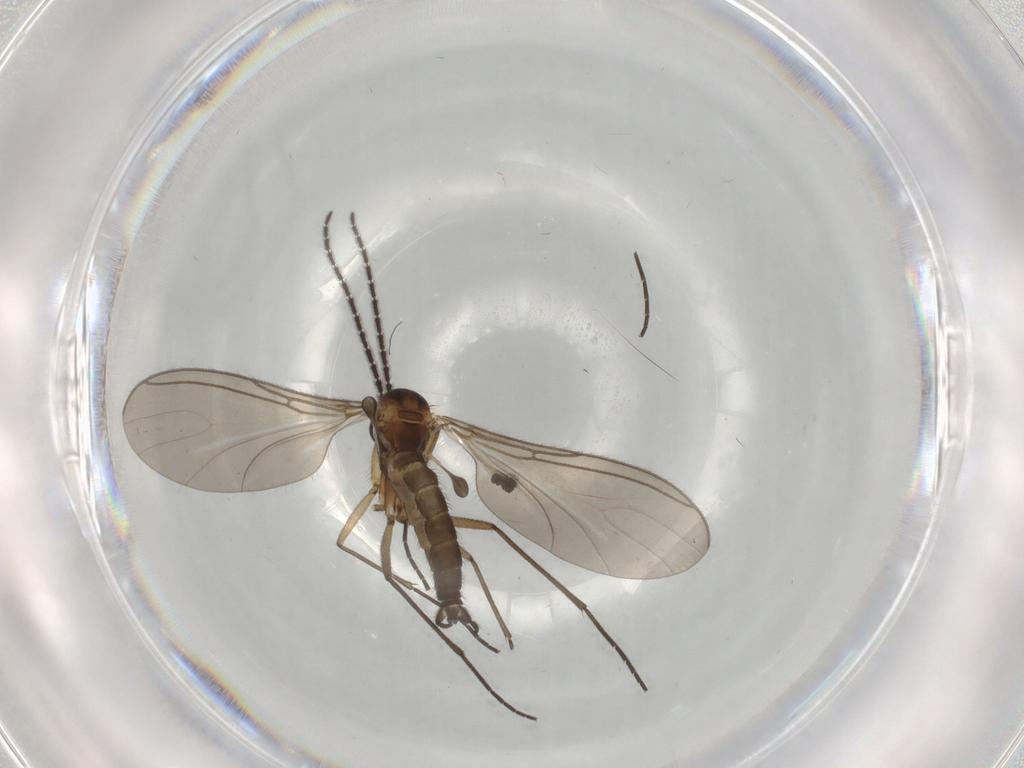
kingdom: Animalia
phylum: Arthropoda
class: Insecta
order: Diptera
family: Sciaridae
